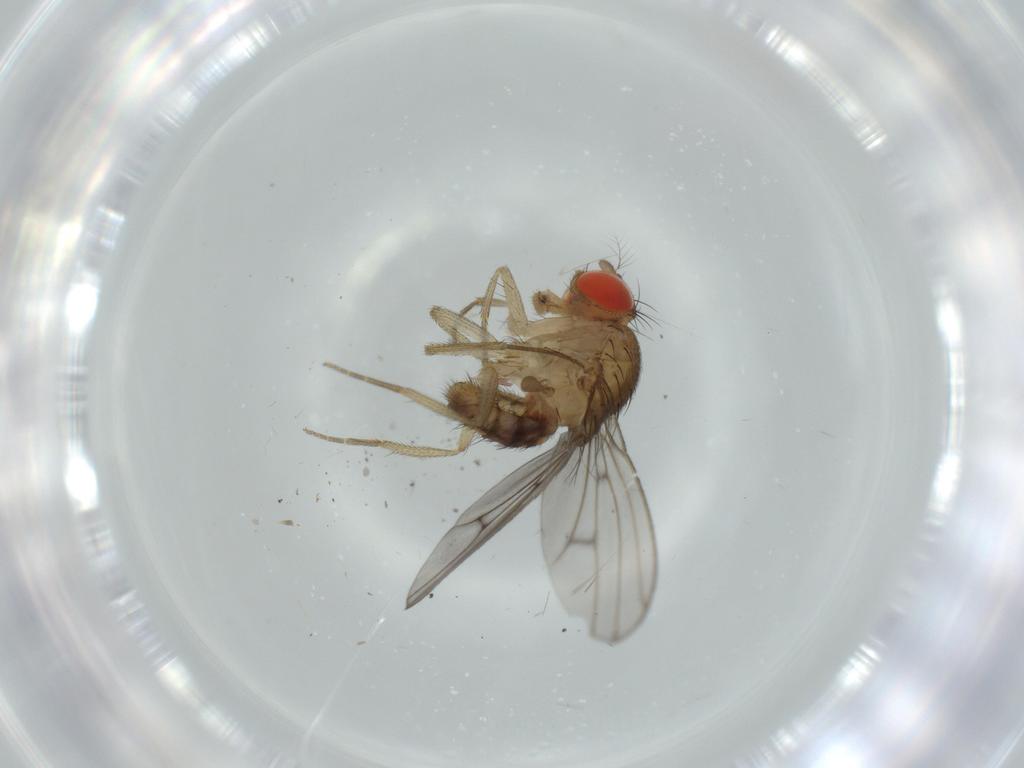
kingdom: Animalia
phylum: Arthropoda
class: Insecta
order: Diptera
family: Drosophilidae
